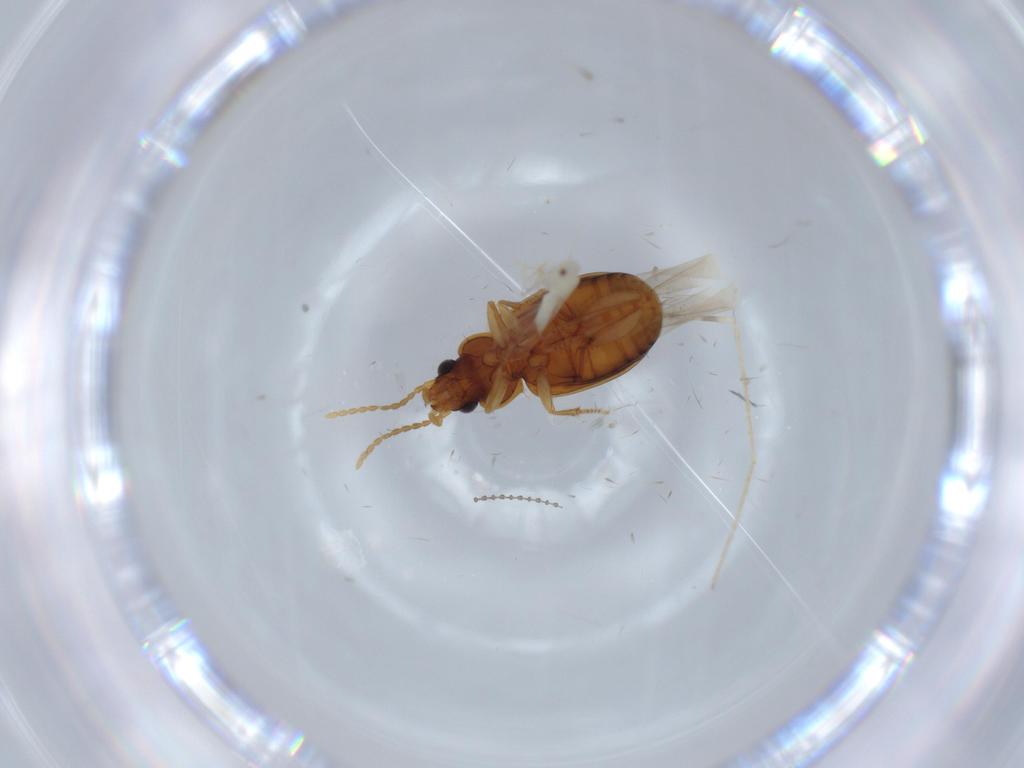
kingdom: Animalia
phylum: Arthropoda
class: Insecta
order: Coleoptera
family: Carabidae
